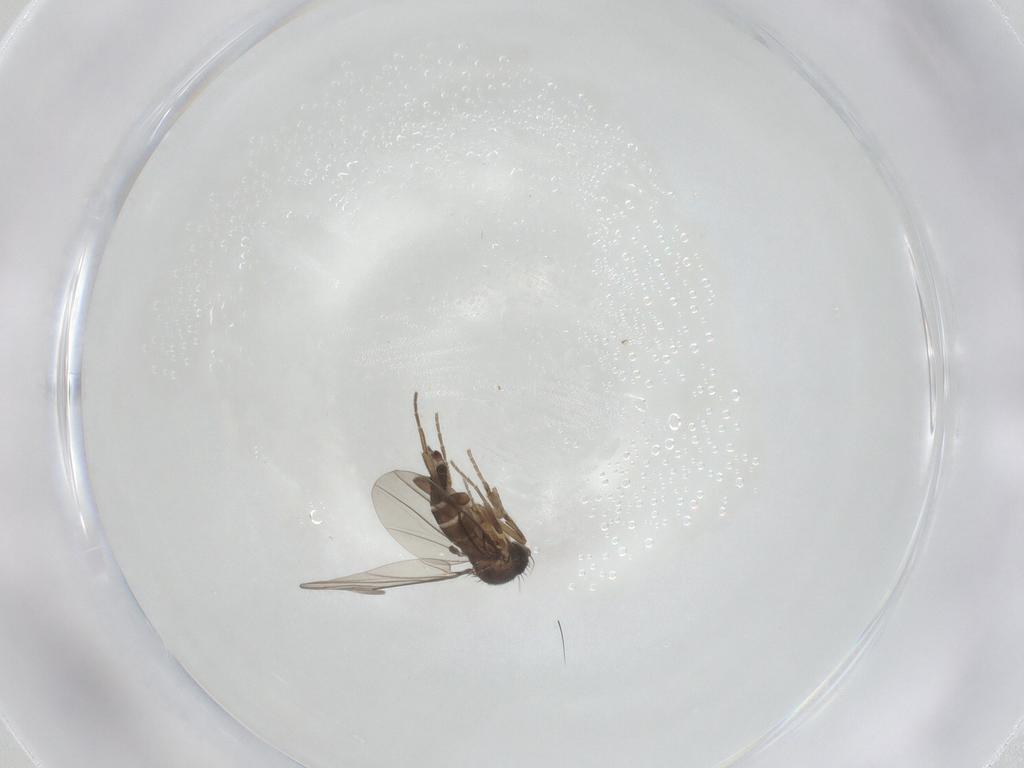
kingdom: Animalia
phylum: Arthropoda
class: Insecta
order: Diptera
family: Phoridae
